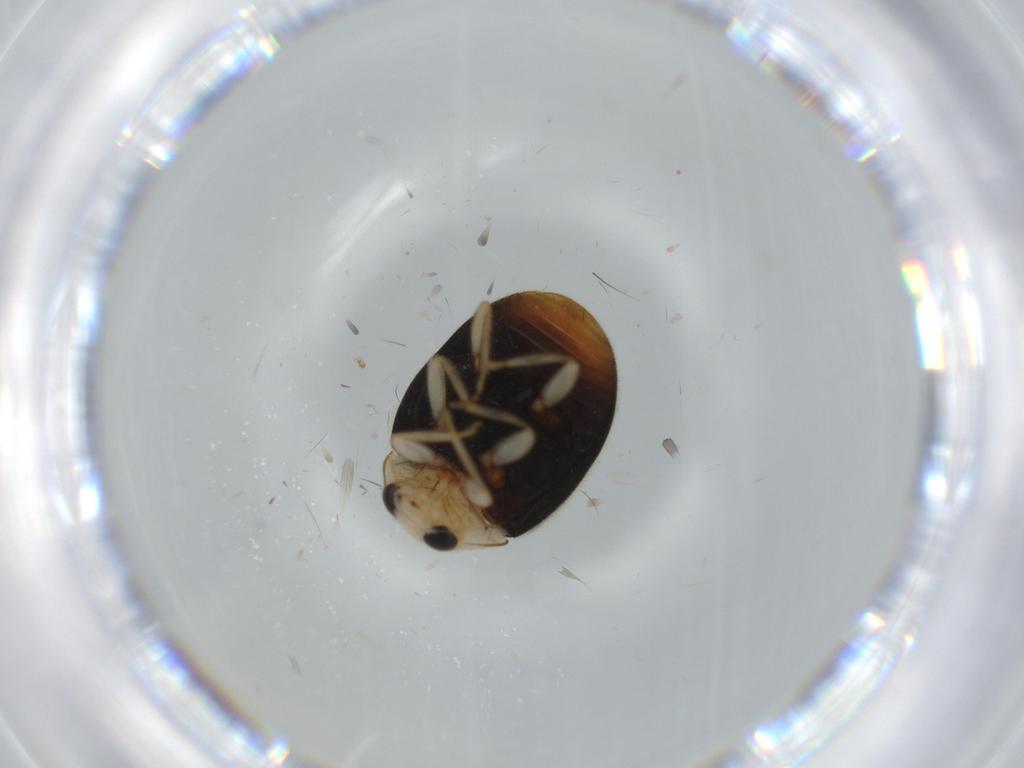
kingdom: Animalia
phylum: Arthropoda
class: Insecta
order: Coleoptera
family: Coccinellidae
